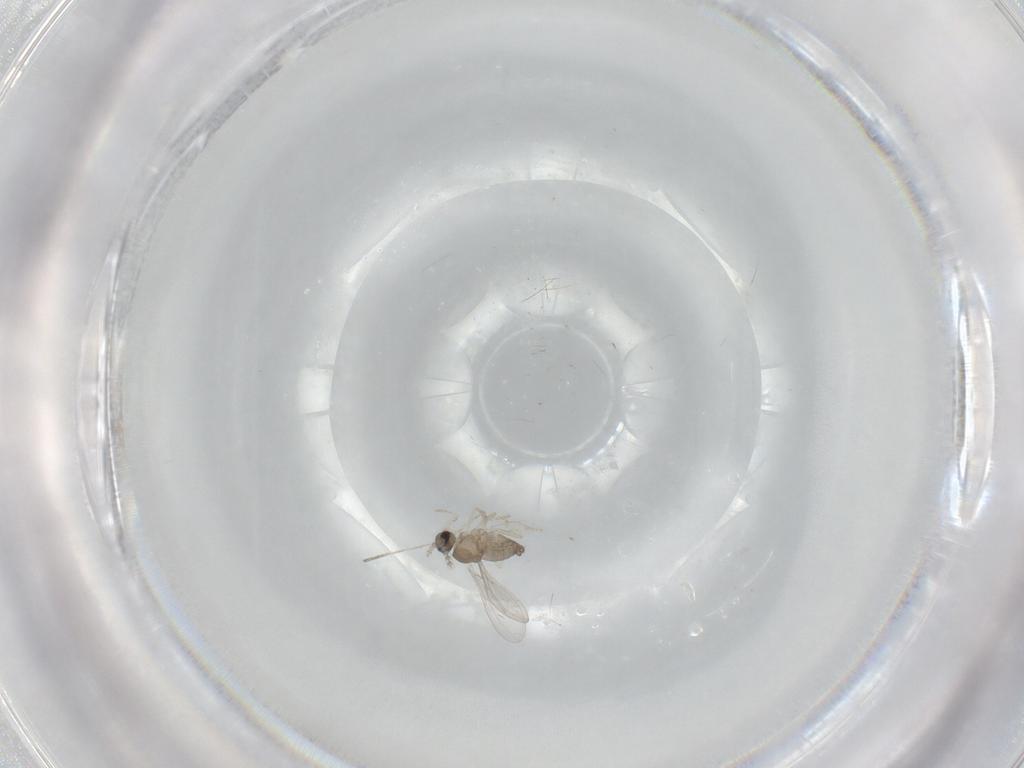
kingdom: Animalia
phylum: Arthropoda
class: Insecta
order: Diptera
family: Cecidomyiidae
